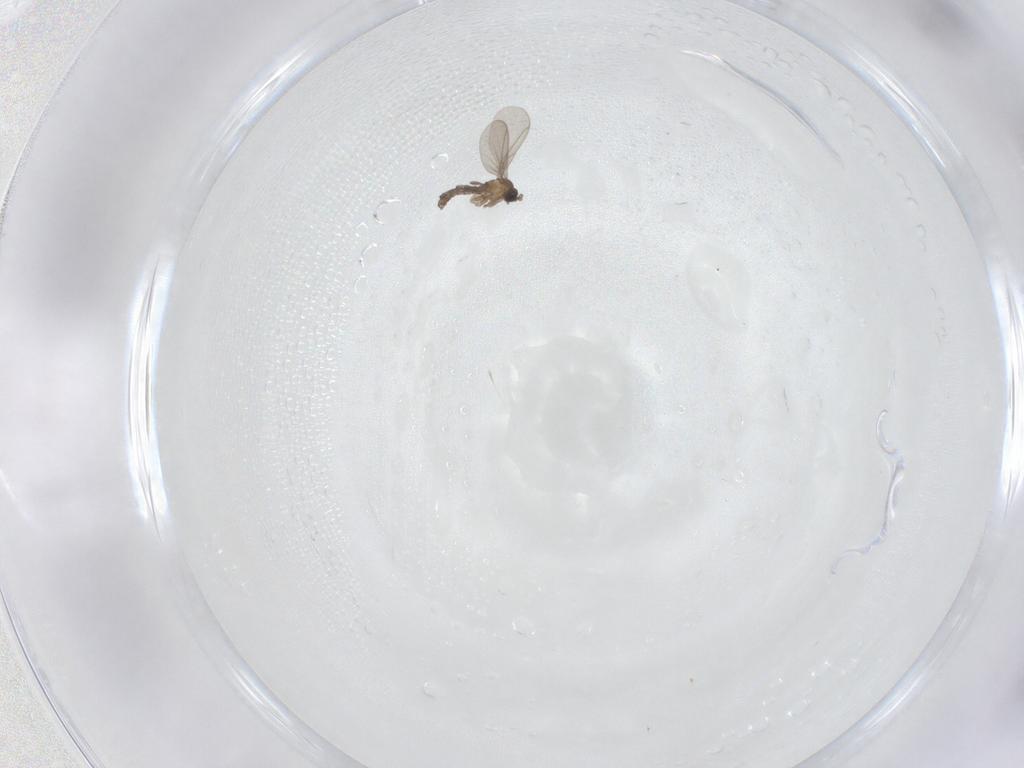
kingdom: Animalia
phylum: Arthropoda
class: Insecta
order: Diptera
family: Sciaridae
